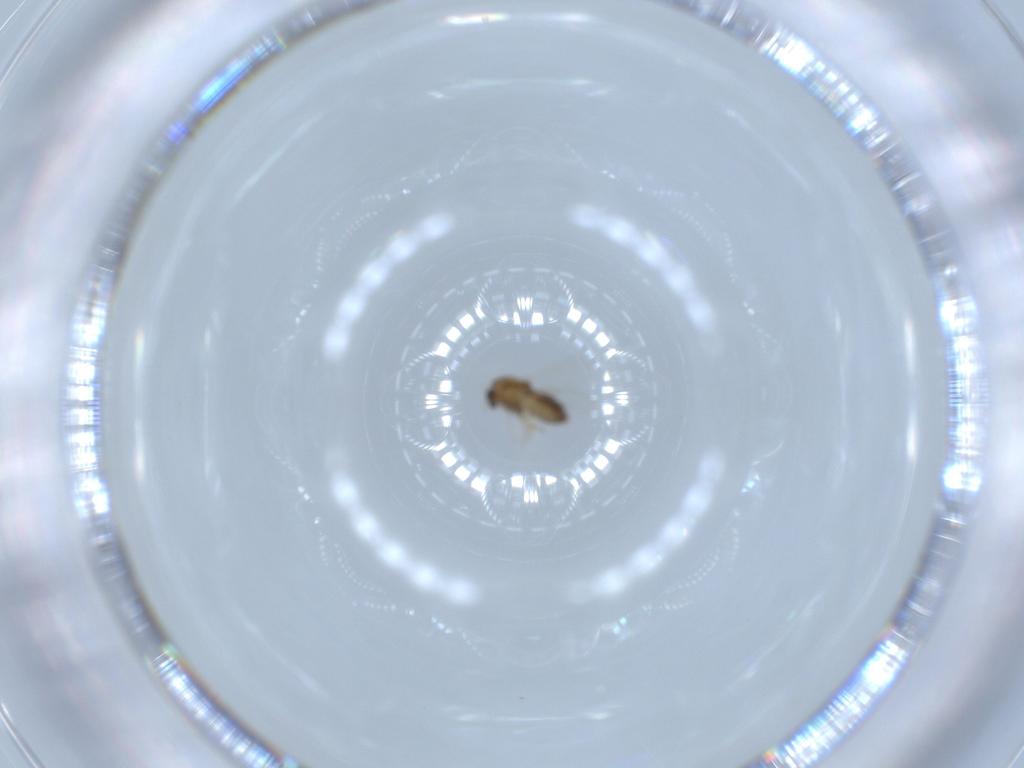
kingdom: Animalia
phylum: Arthropoda
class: Insecta
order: Diptera
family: Chironomidae
